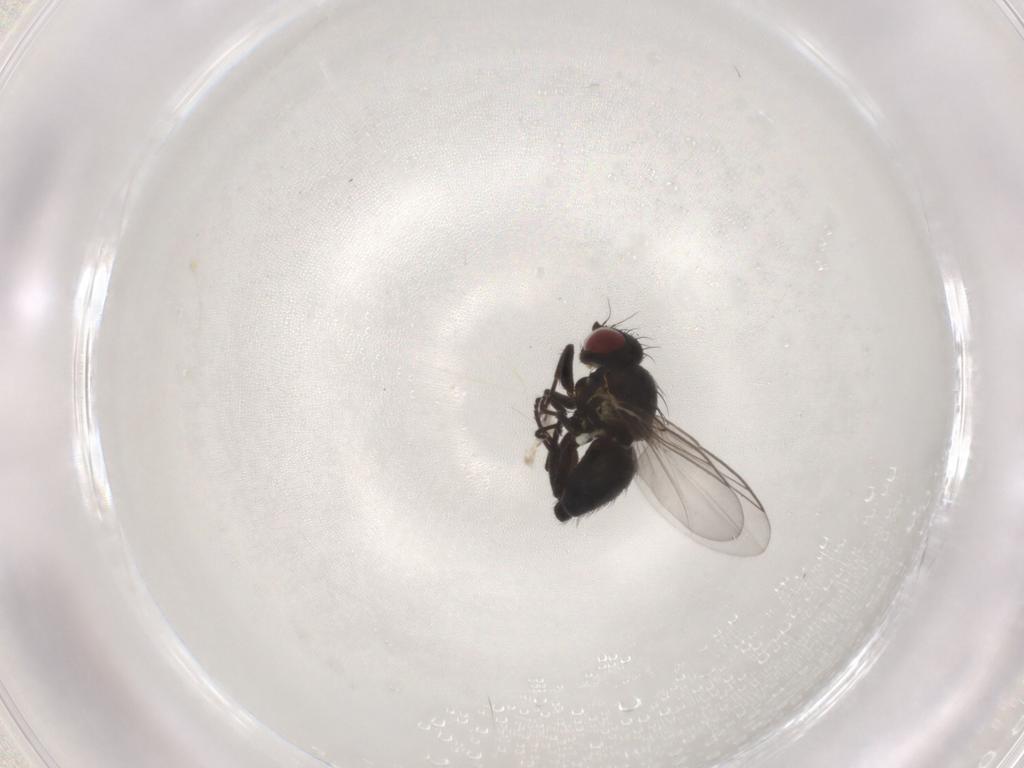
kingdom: Animalia
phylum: Arthropoda
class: Insecta
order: Diptera
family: Agromyzidae
